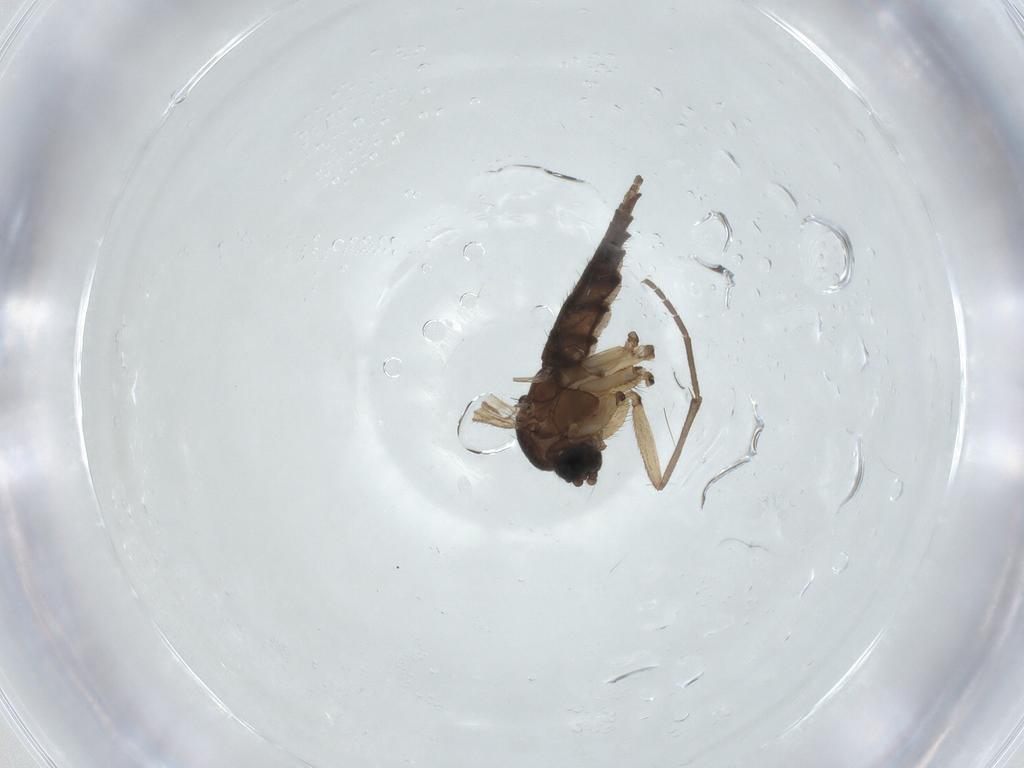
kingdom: Animalia
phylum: Arthropoda
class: Insecta
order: Diptera
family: Sciaridae
